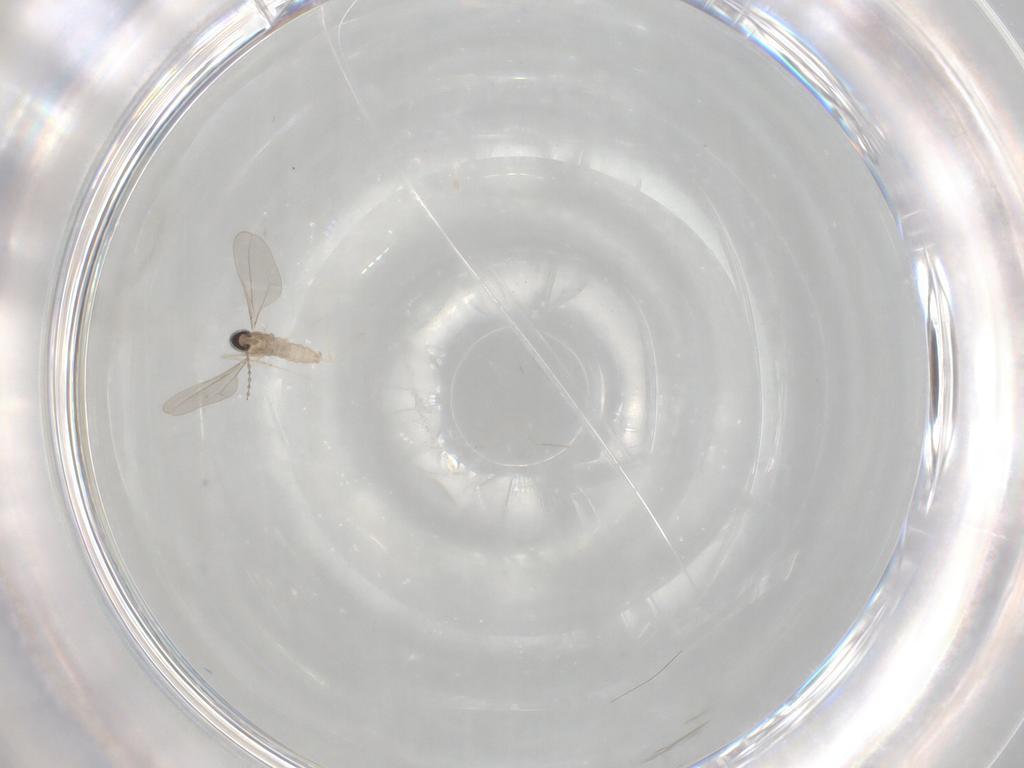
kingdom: Animalia
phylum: Arthropoda
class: Insecta
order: Diptera
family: Cecidomyiidae
